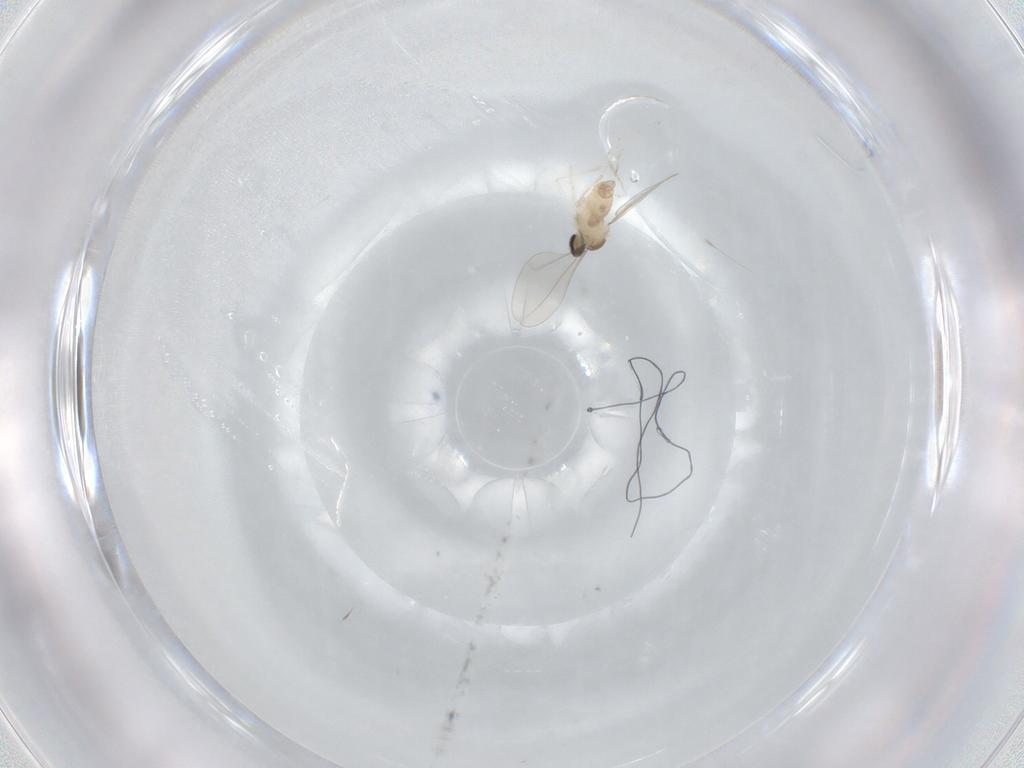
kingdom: Animalia
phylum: Arthropoda
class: Insecta
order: Diptera
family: Cecidomyiidae
